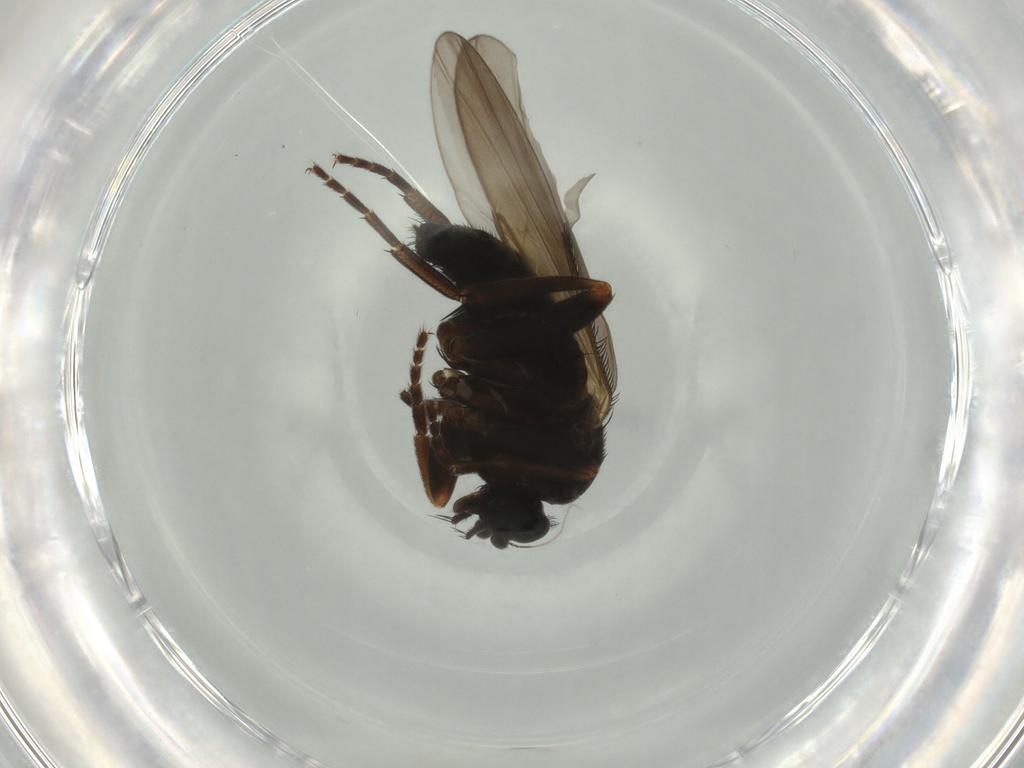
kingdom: Animalia
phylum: Arthropoda
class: Insecta
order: Diptera
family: Phoridae
